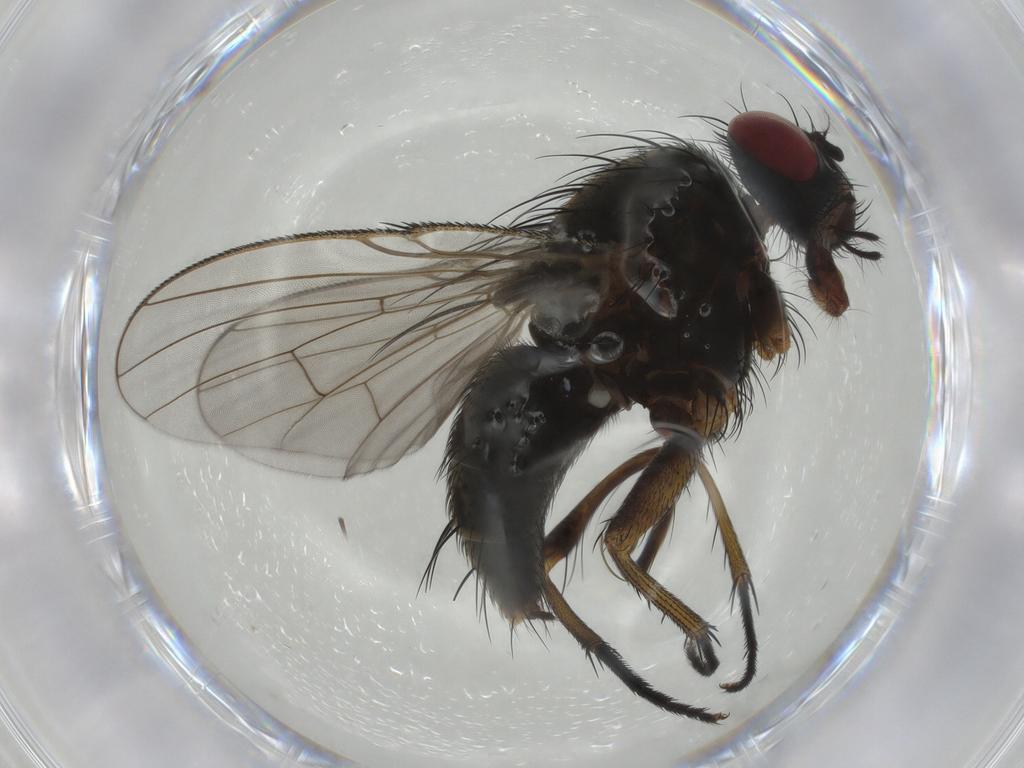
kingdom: Animalia
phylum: Arthropoda
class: Insecta
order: Diptera
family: Muscidae
